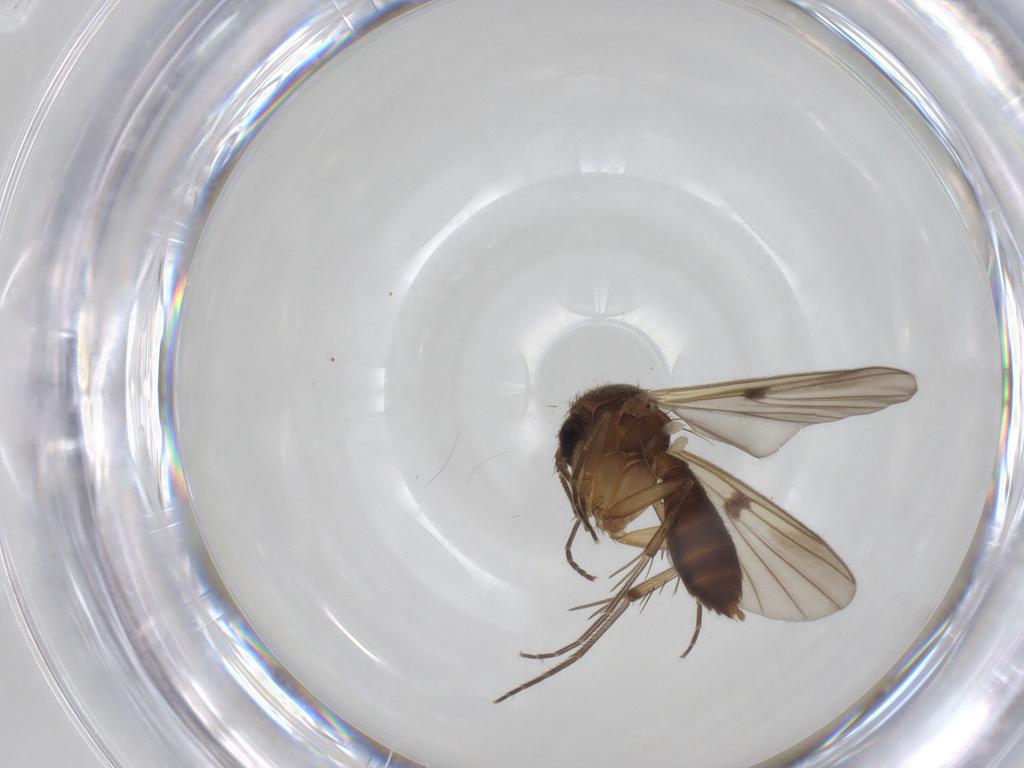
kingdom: Animalia
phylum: Arthropoda
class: Insecta
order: Diptera
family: Mycetophilidae
